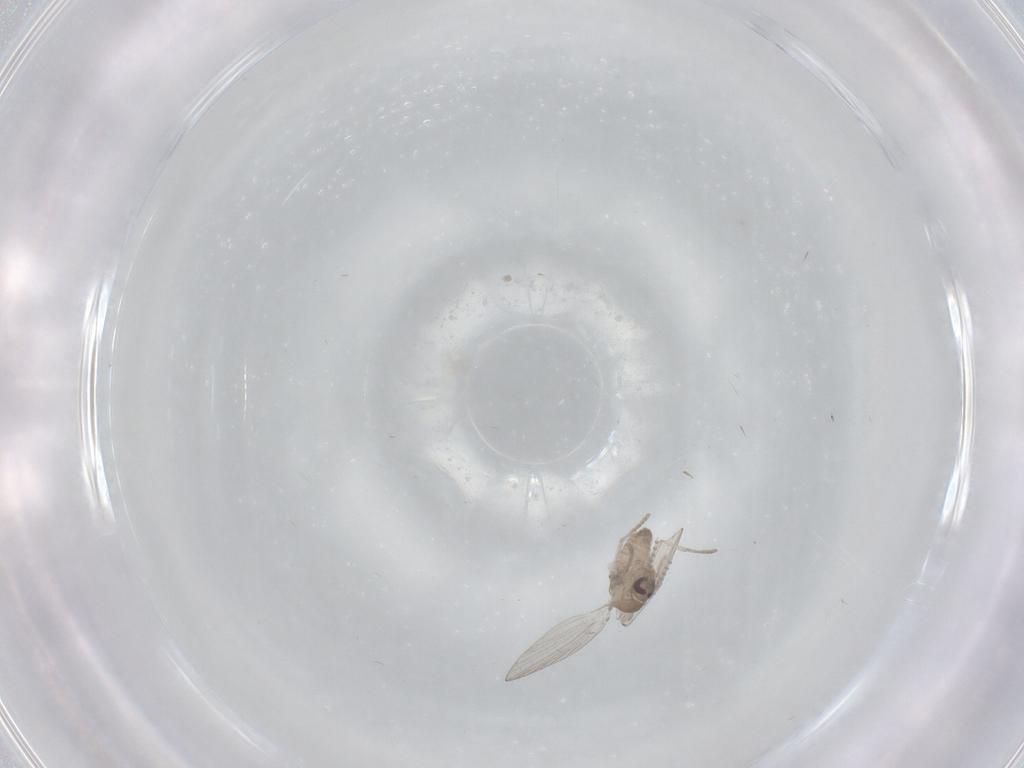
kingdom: Animalia
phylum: Arthropoda
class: Insecta
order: Diptera
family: Psychodidae
